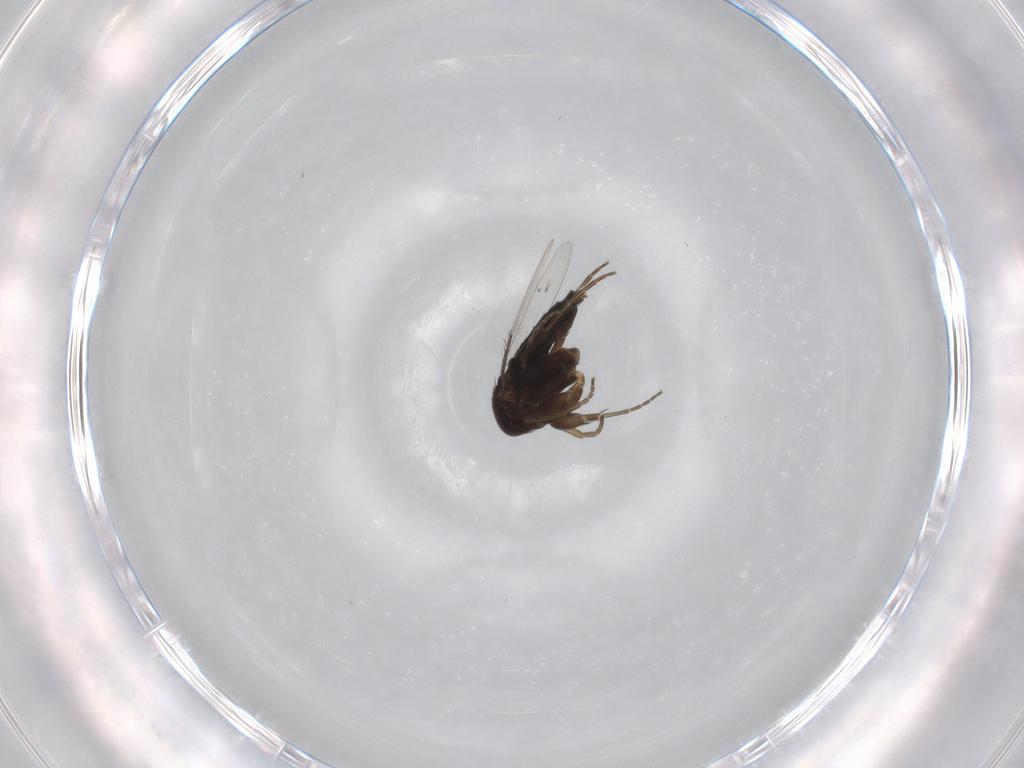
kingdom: Animalia
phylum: Arthropoda
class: Insecta
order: Diptera
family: Phoridae
